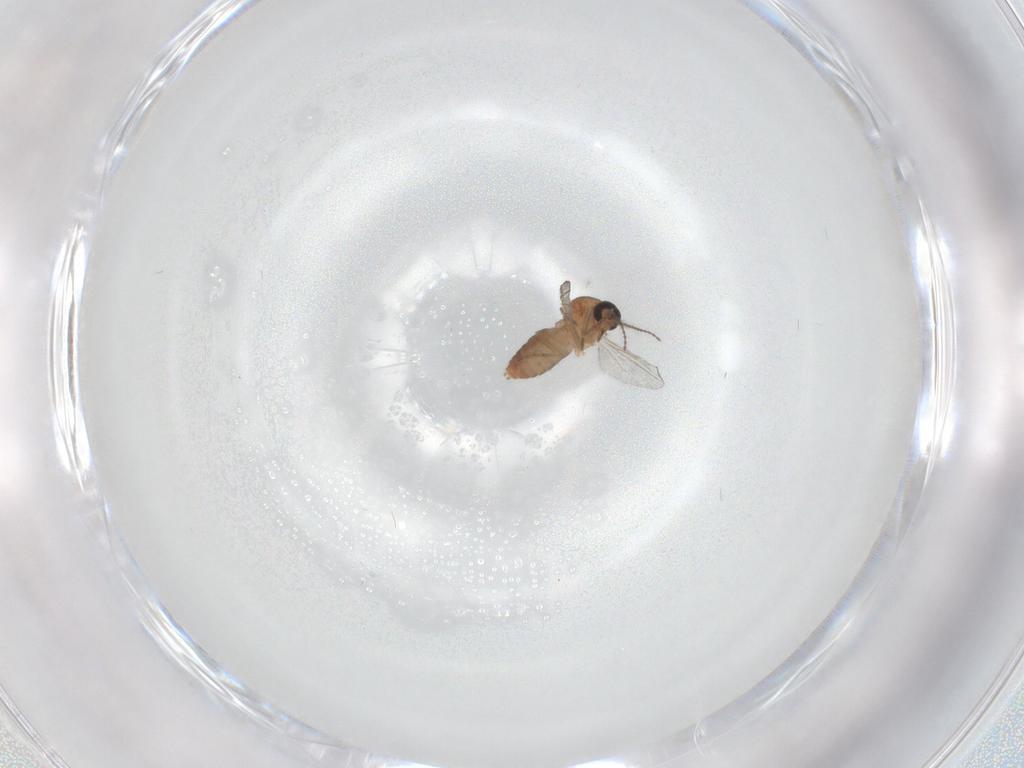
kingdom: Animalia
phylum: Arthropoda
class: Insecta
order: Diptera
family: Ceratopogonidae
